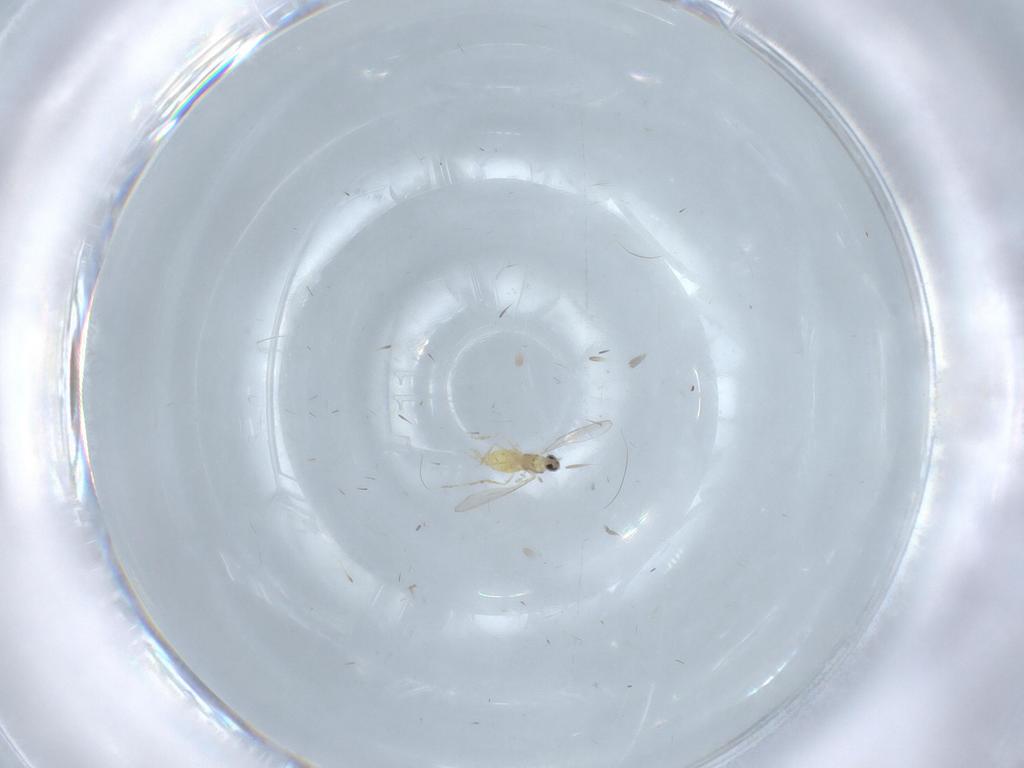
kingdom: Animalia
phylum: Arthropoda
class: Insecta
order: Diptera
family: Cecidomyiidae
